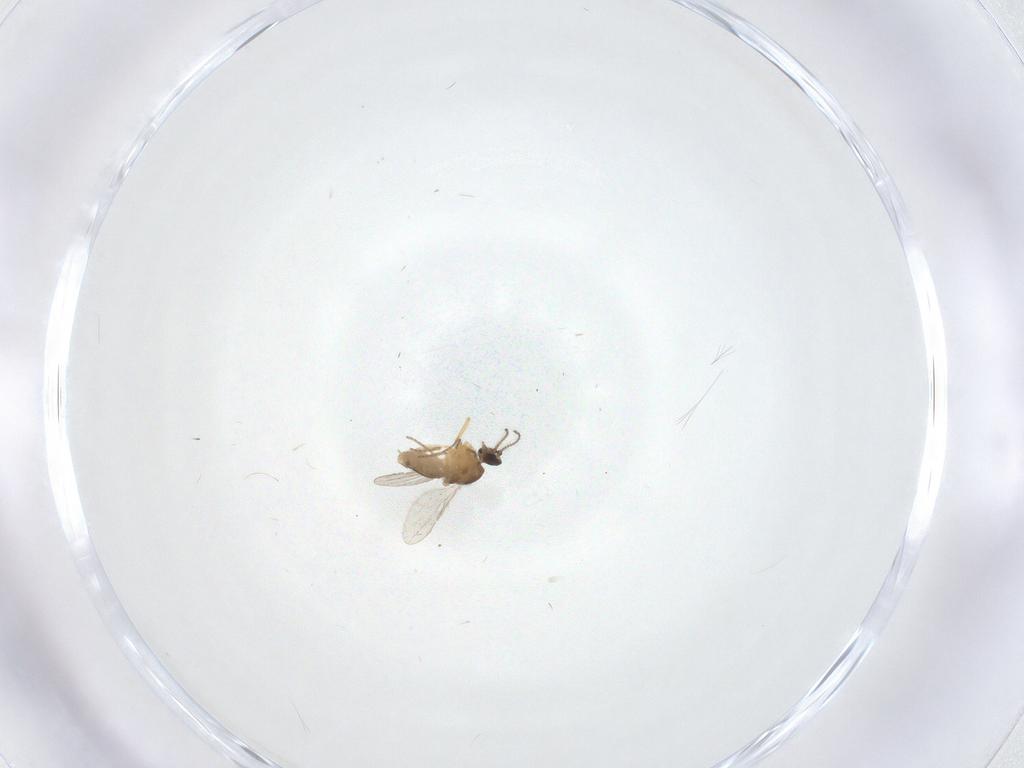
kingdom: Animalia
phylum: Arthropoda
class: Insecta
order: Diptera
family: Ceratopogonidae
